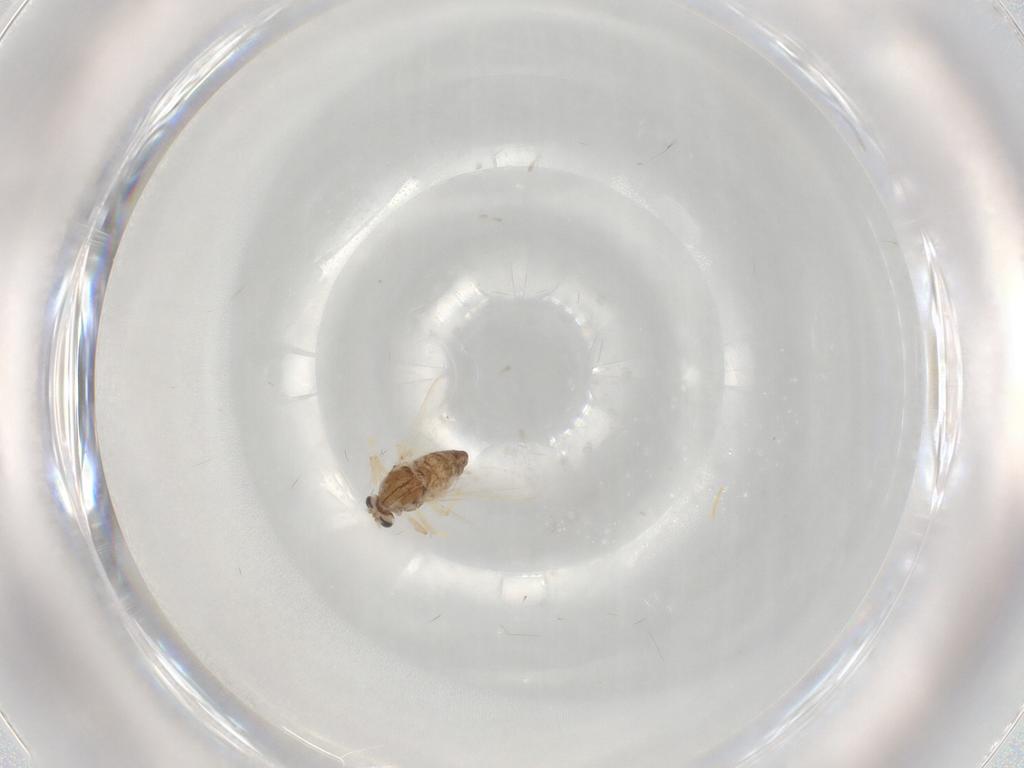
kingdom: Animalia
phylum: Arthropoda
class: Insecta
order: Diptera
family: Chironomidae
